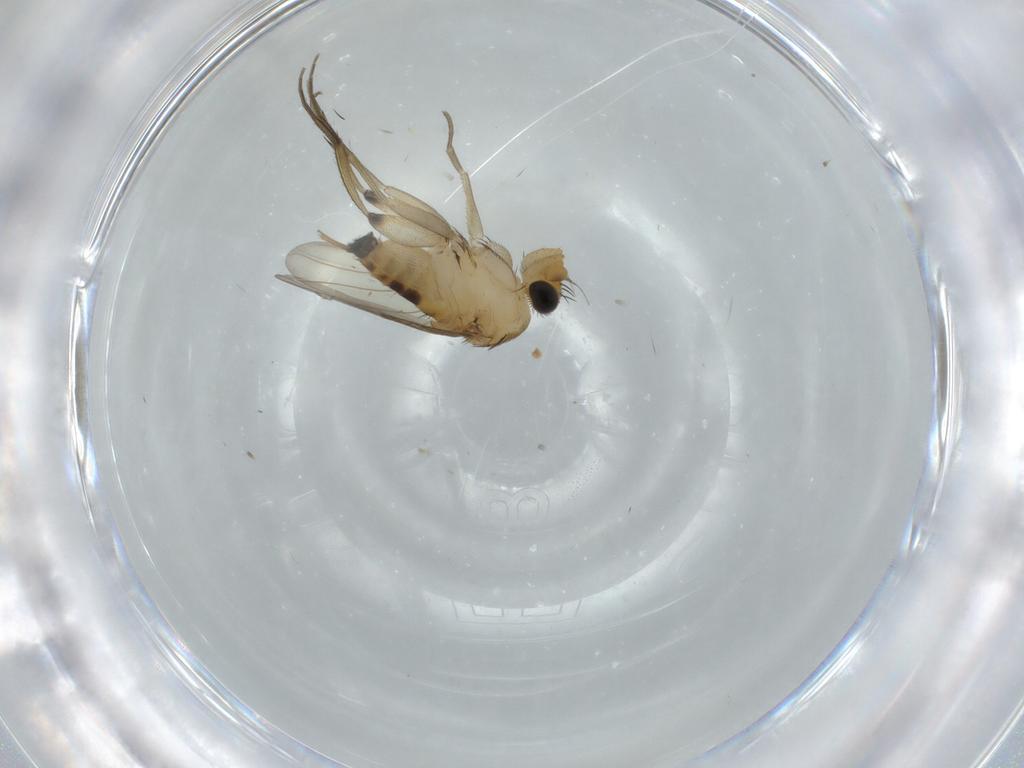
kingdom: Animalia
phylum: Arthropoda
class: Insecta
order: Diptera
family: Phoridae
